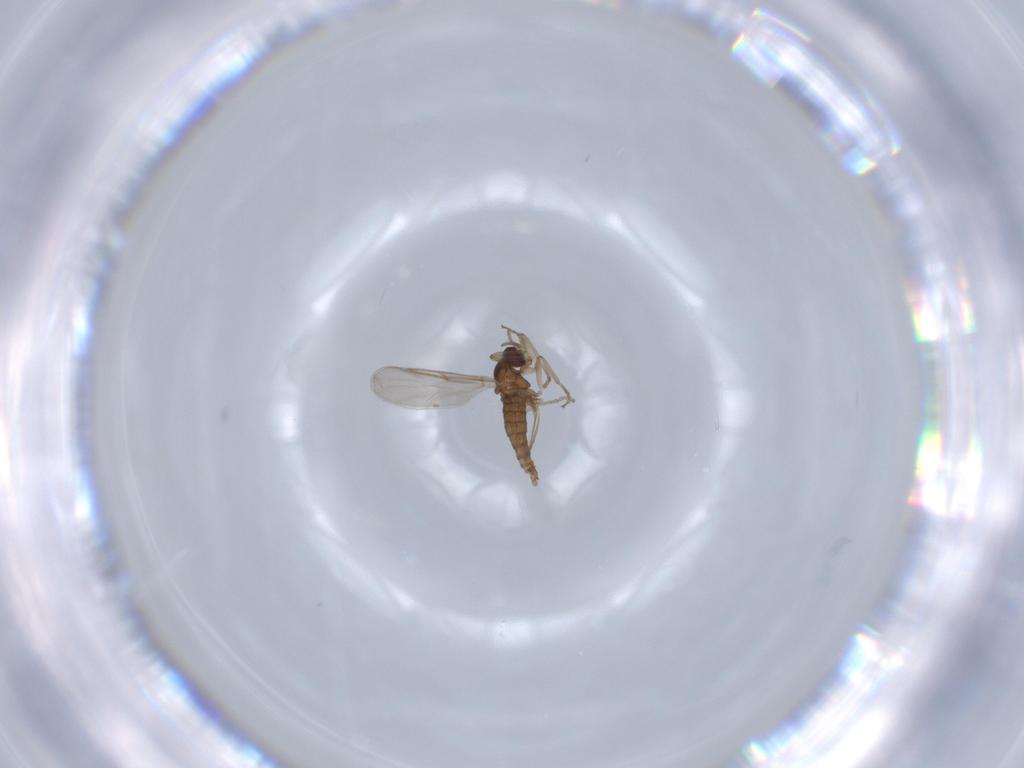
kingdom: Animalia
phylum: Arthropoda
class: Insecta
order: Diptera
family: Cecidomyiidae
